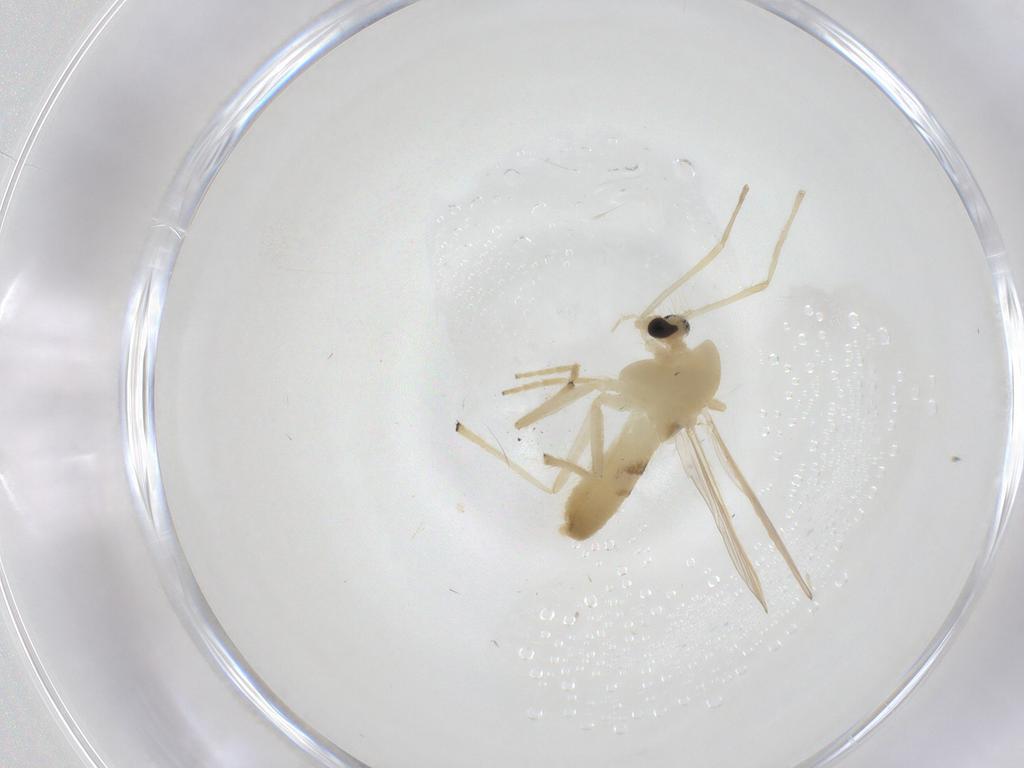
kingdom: Animalia
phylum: Arthropoda
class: Insecta
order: Diptera
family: Chironomidae
